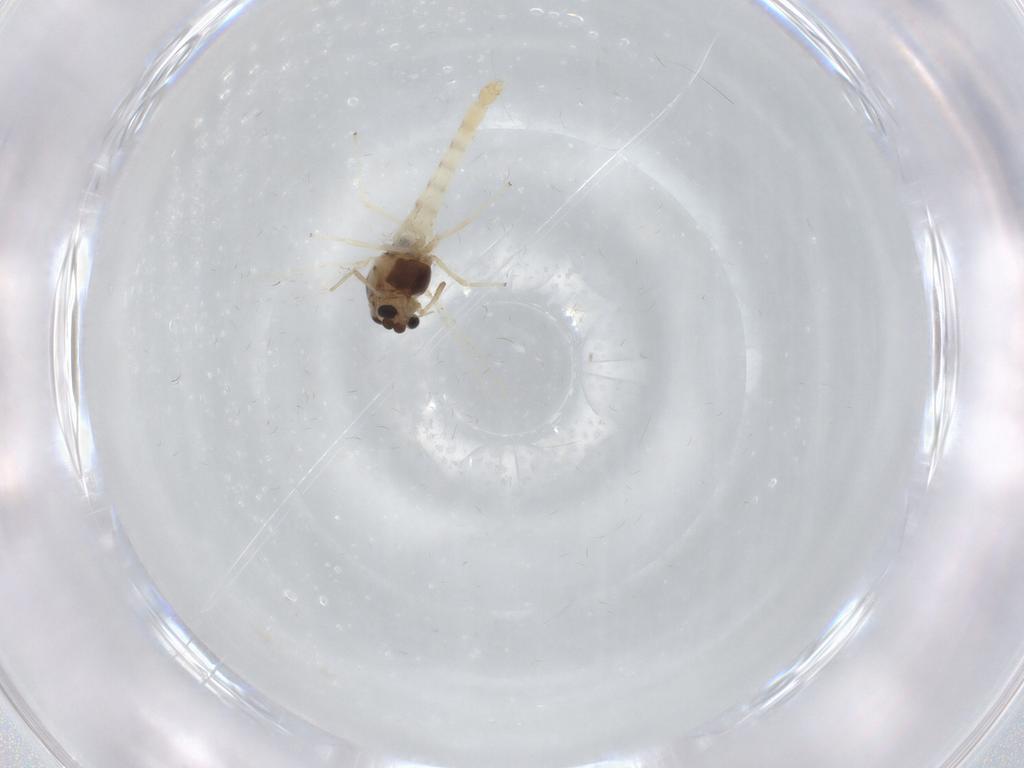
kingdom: Animalia
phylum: Arthropoda
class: Insecta
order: Diptera
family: Chironomidae
